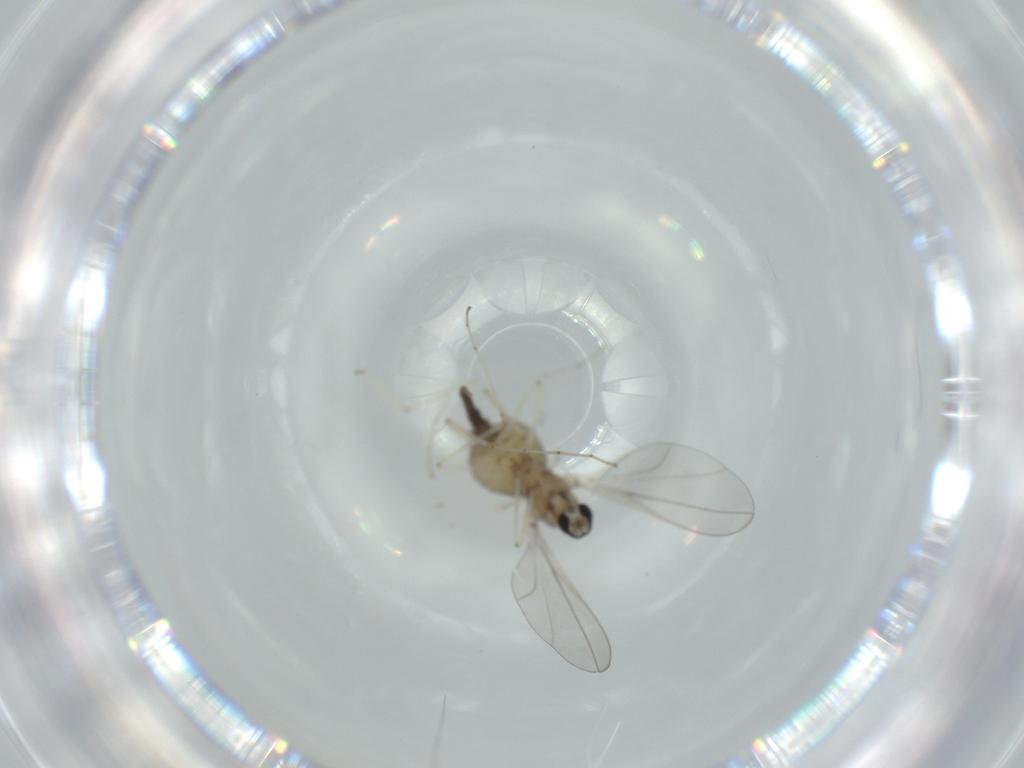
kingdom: Animalia
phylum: Arthropoda
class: Insecta
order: Diptera
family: Cecidomyiidae
